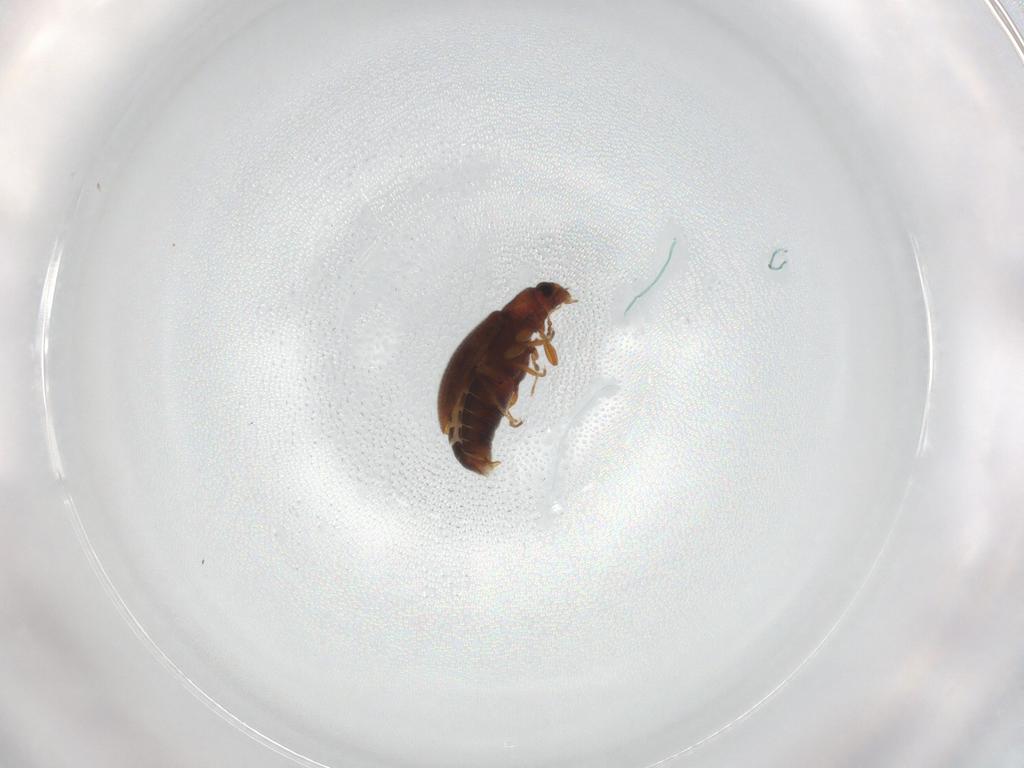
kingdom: Animalia
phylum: Arthropoda
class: Insecta
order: Coleoptera
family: Latridiidae
